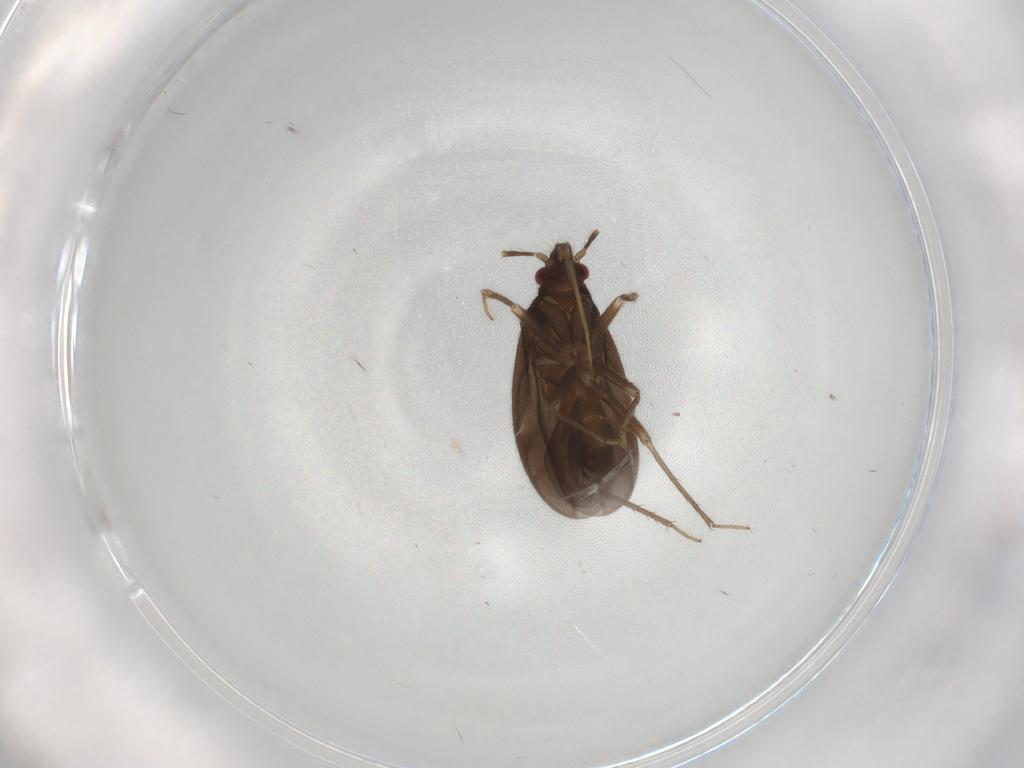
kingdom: Animalia
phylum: Arthropoda
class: Insecta
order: Hemiptera
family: Ceratocombidae
